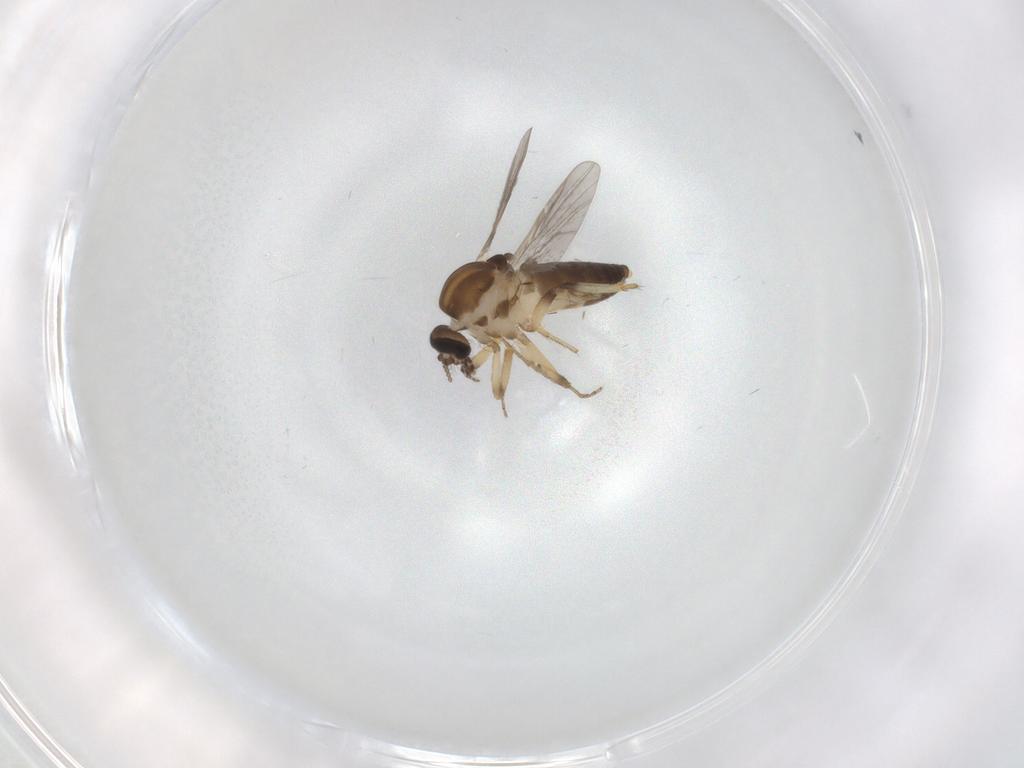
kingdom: Animalia
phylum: Arthropoda
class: Insecta
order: Diptera
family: Ceratopogonidae
